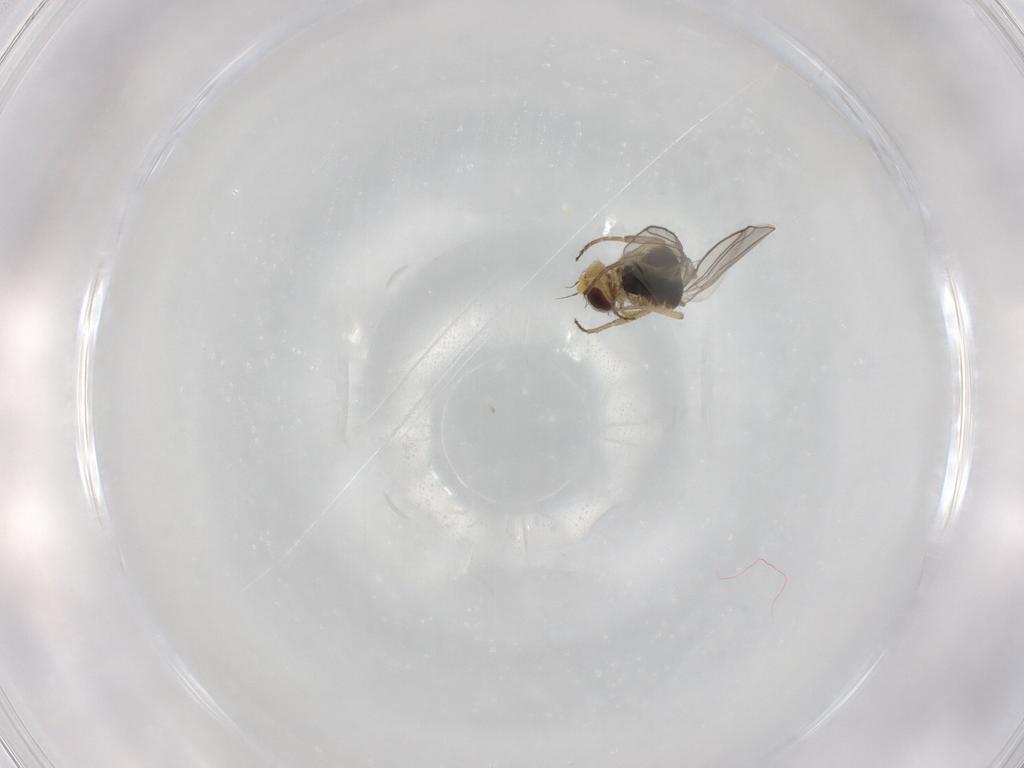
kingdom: Animalia
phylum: Arthropoda
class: Insecta
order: Diptera
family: Agromyzidae
